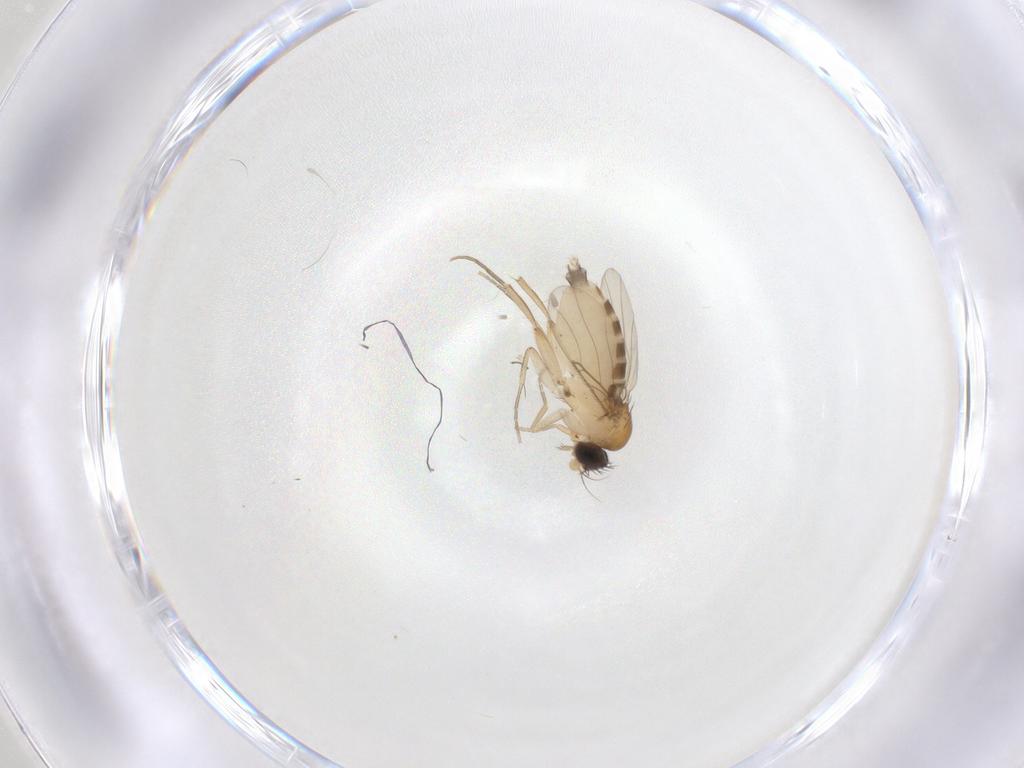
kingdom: Animalia
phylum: Arthropoda
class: Insecta
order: Diptera
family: Phoridae
